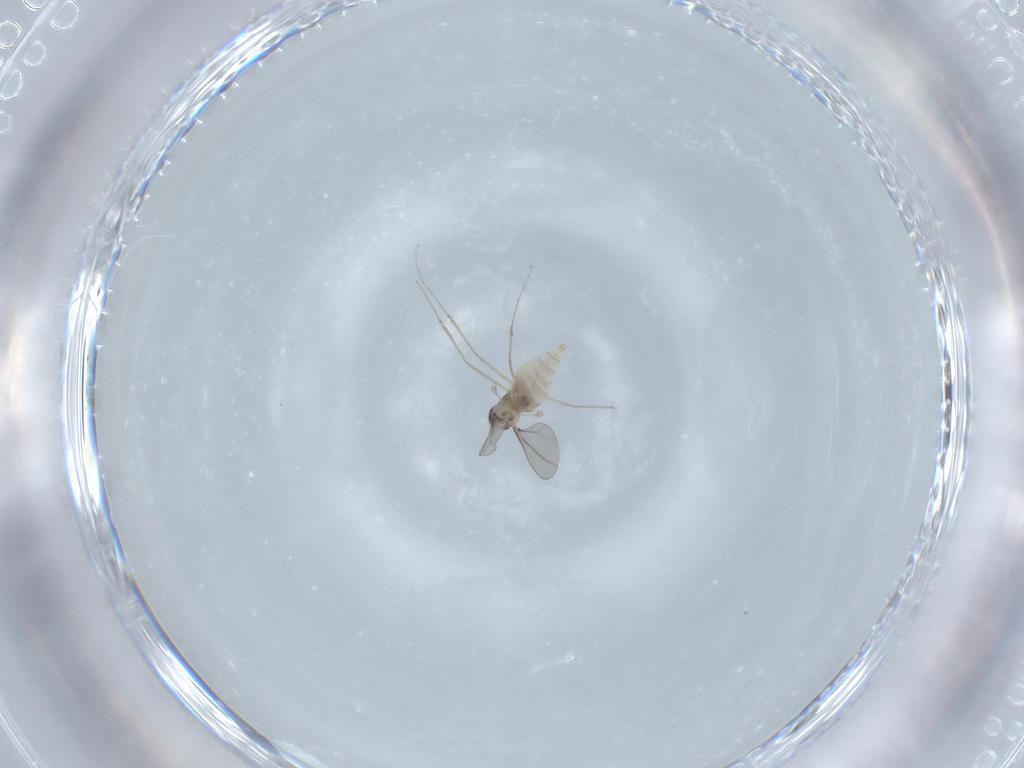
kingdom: Animalia
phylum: Arthropoda
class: Insecta
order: Diptera
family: Cecidomyiidae
